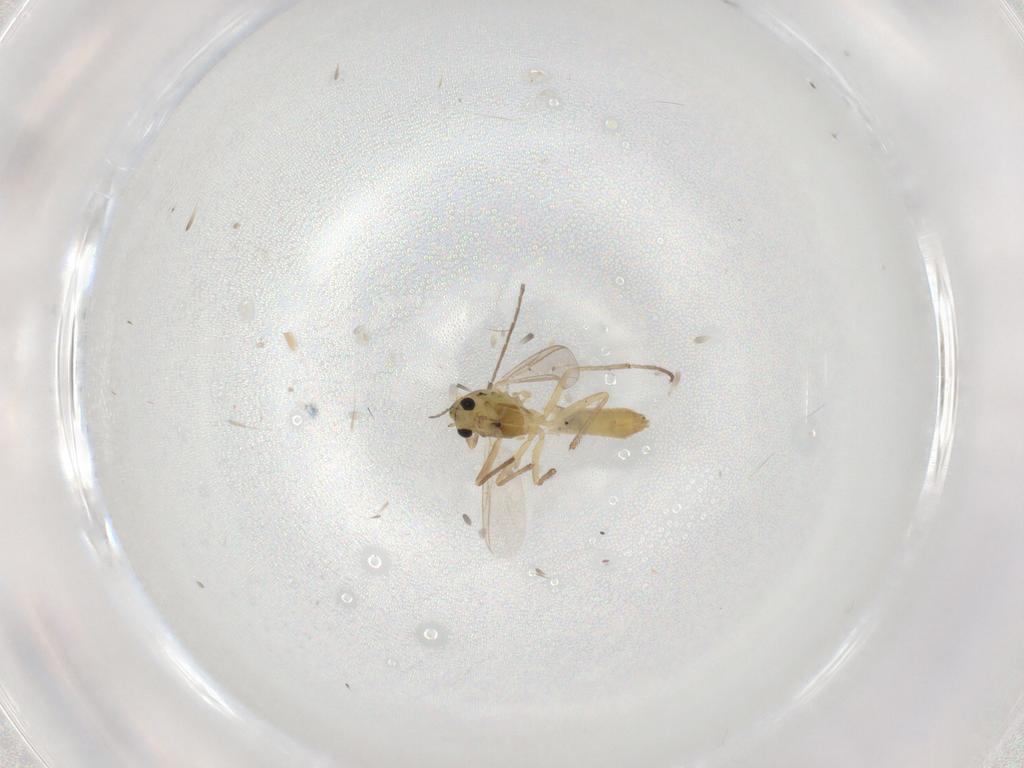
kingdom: Animalia
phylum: Arthropoda
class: Insecta
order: Diptera
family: Chironomidae
